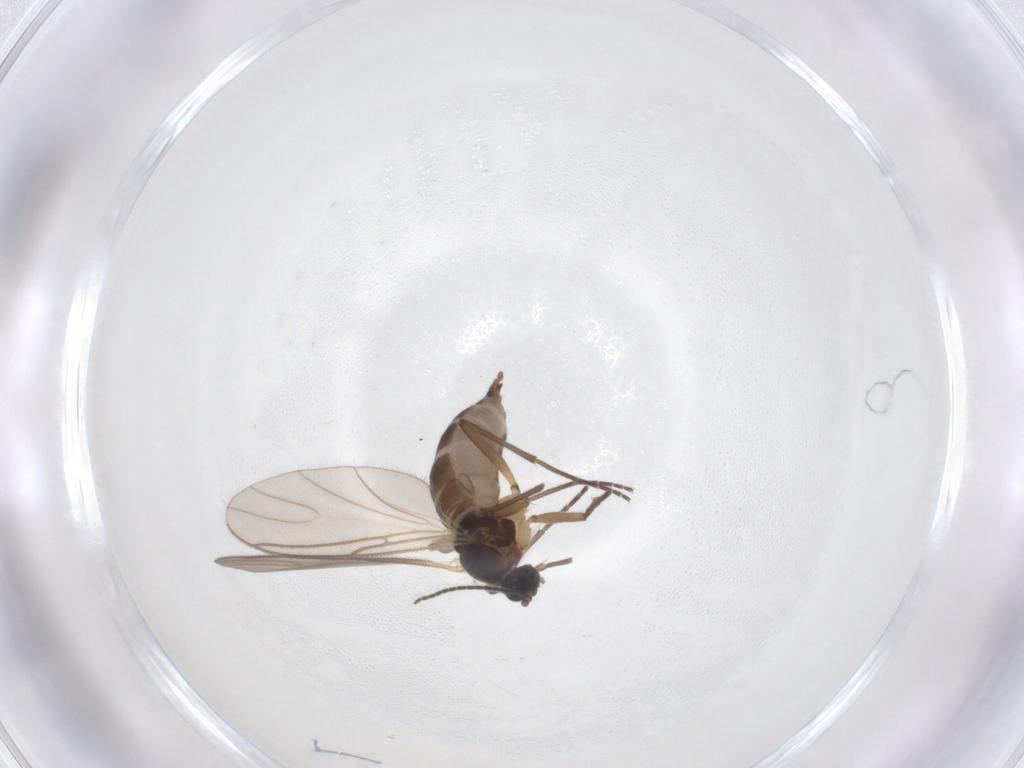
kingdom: Animalia
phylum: Arthropoda
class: Insecta
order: Diptera
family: Sciaridae
